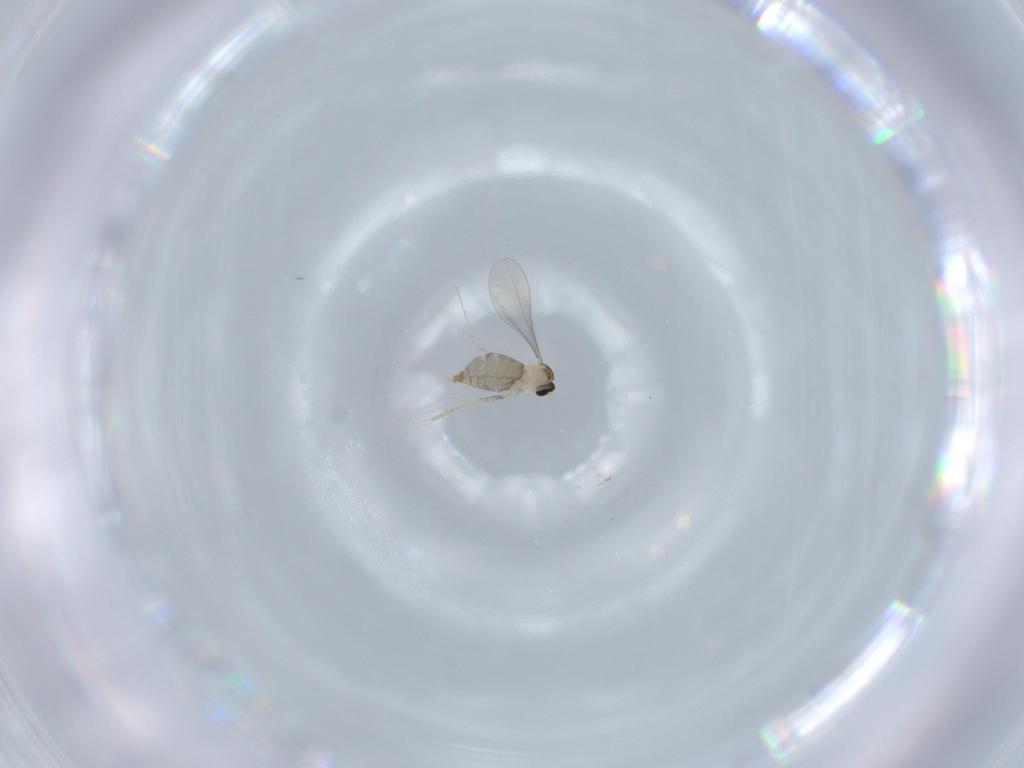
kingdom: Animalia
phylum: Arthropoda
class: Insecta
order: Diptera
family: Limoniidae
